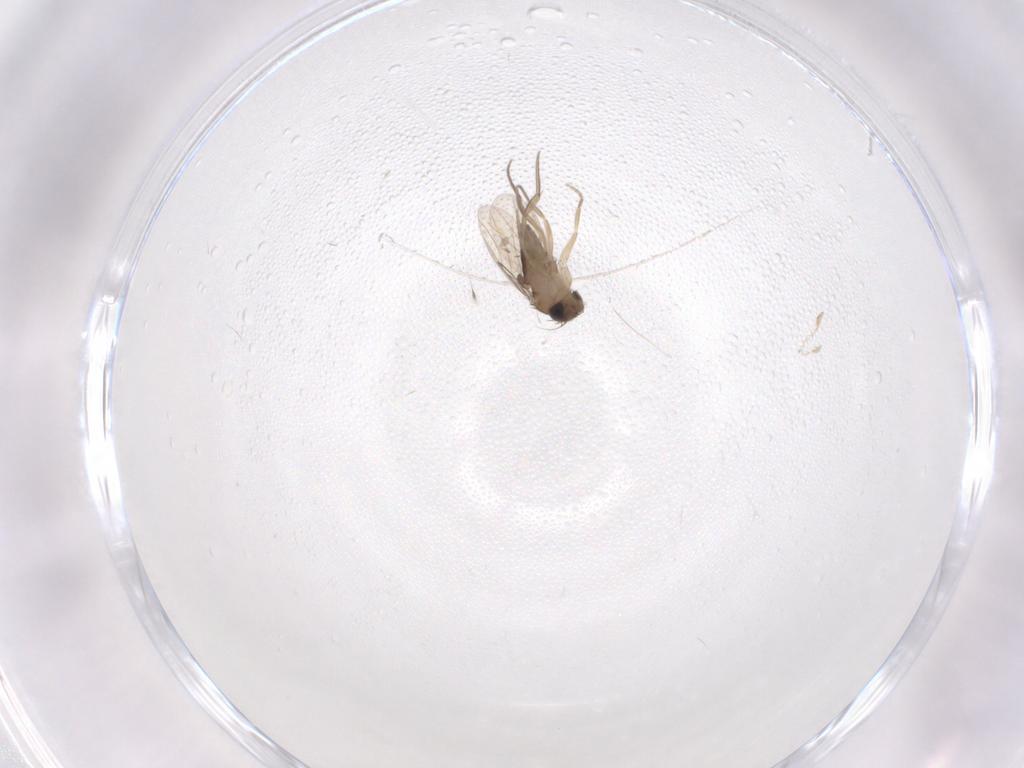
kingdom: Animalia
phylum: Arthropoda
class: Insecta
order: Diptera
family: Phoridae
